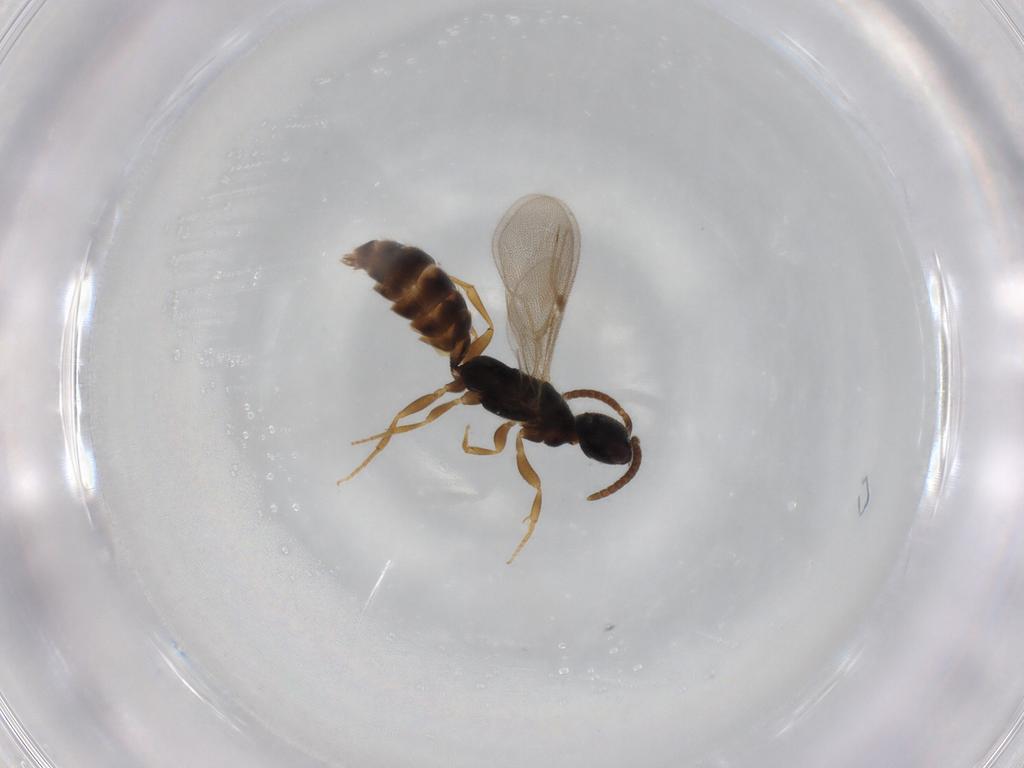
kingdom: Animalia
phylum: Arthropoda
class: Insecta
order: Hymenoptera
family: Bethylidae
